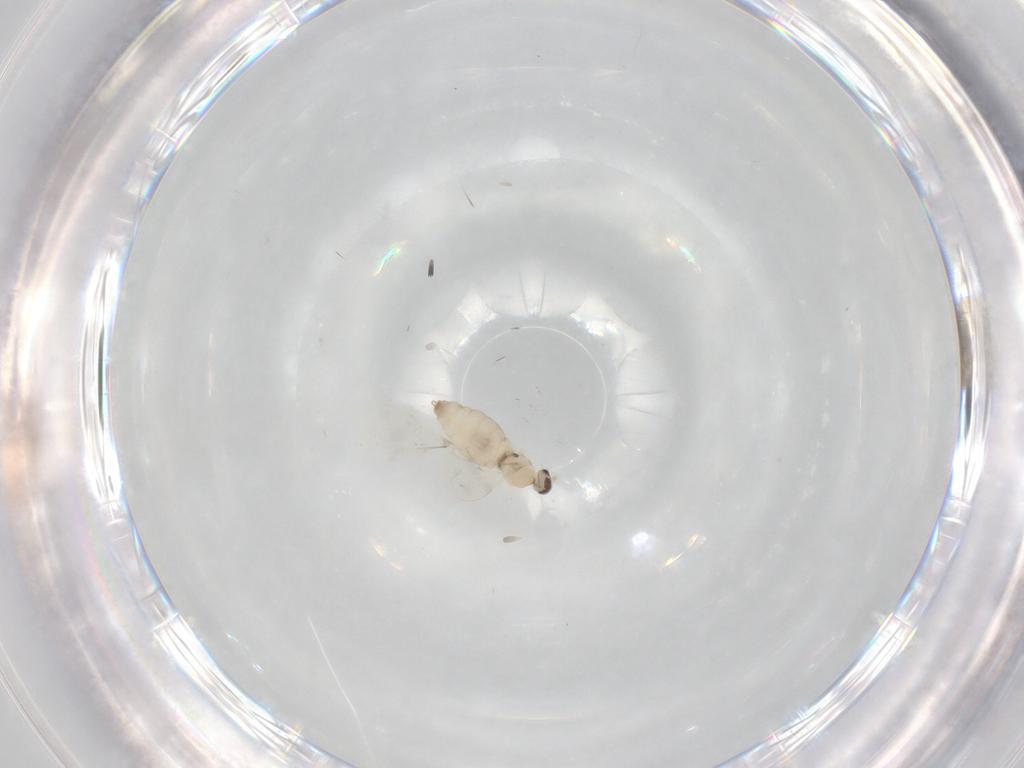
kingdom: Animalia
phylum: Arthropoda
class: Insecta
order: Diptera
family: Cecidomyiidae
